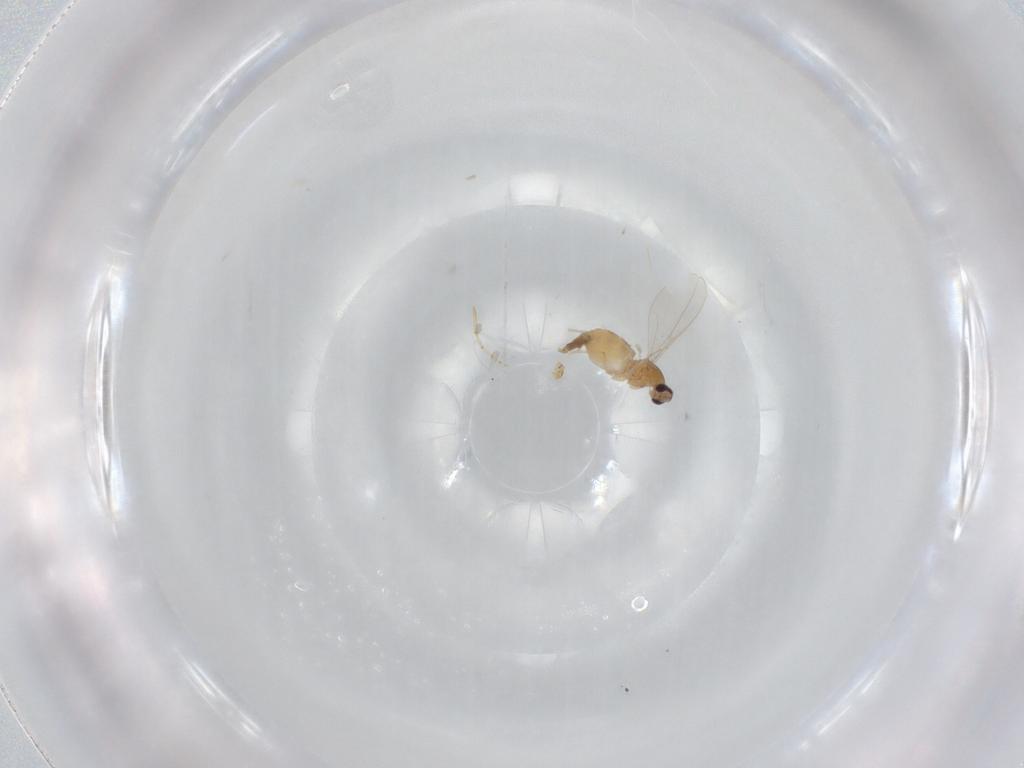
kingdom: Animalia
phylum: Arthropoda
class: Insecta
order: Diptera
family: Cecidomyiidae
